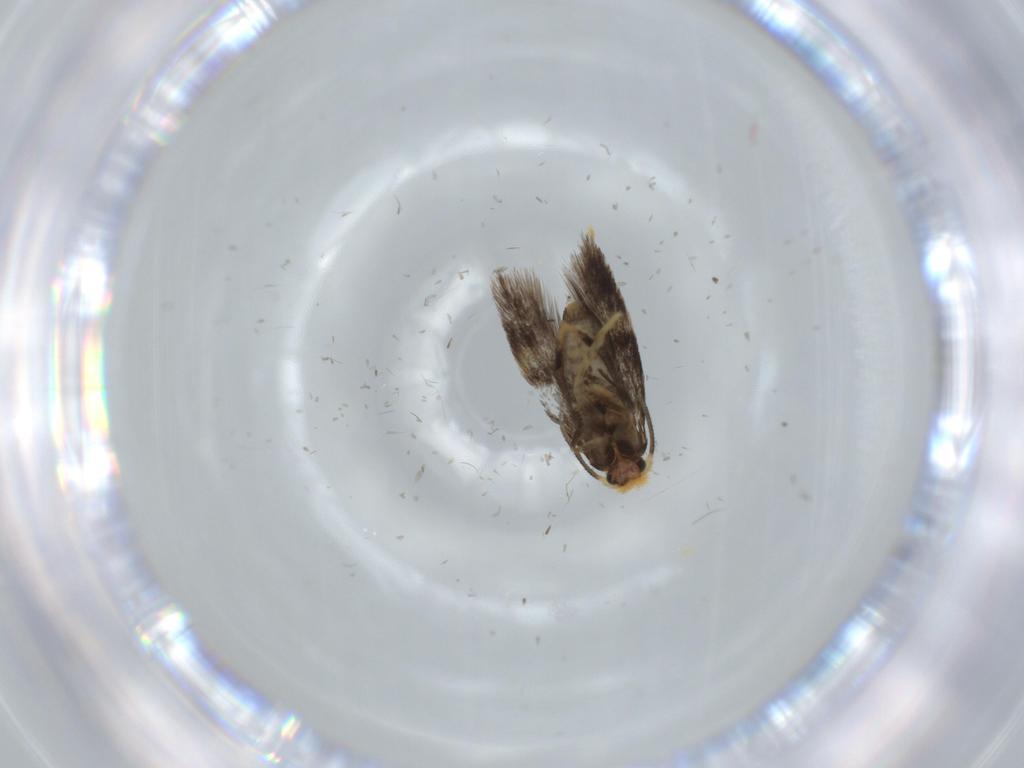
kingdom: Animalia
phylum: Arthropoda
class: Insecta
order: Lepidoptera
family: Nepticulidae
